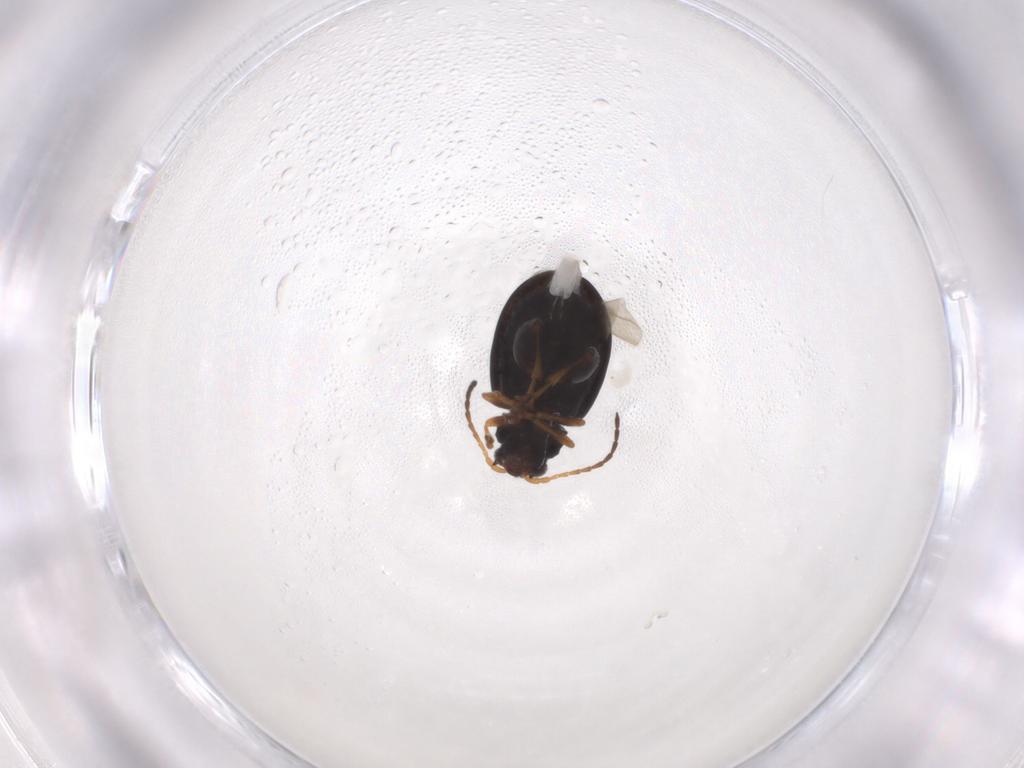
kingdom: Animalia
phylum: Arthropoda
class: Insecta
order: Coleoptera
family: Chrysomelidae
